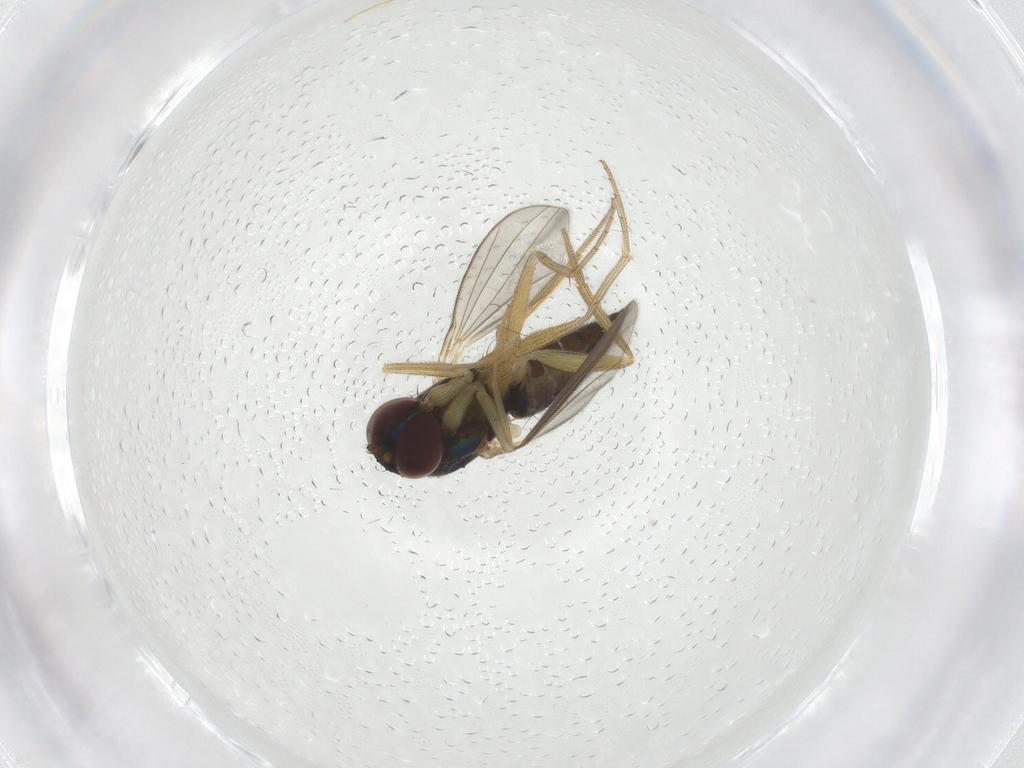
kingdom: Animalia
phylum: Arthropoda
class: Insecta
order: Diptera
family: Dolichopodidae
